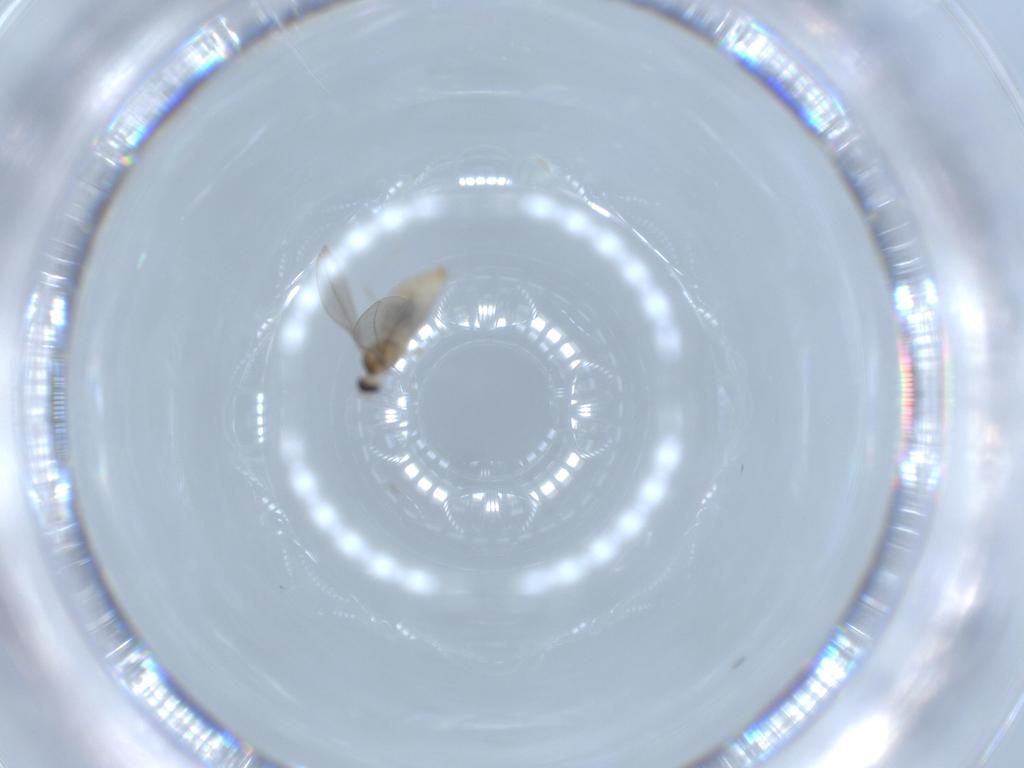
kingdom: Animalia
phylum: Arthropoda
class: Insecta
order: Diptera
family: Cecidomyiidae
